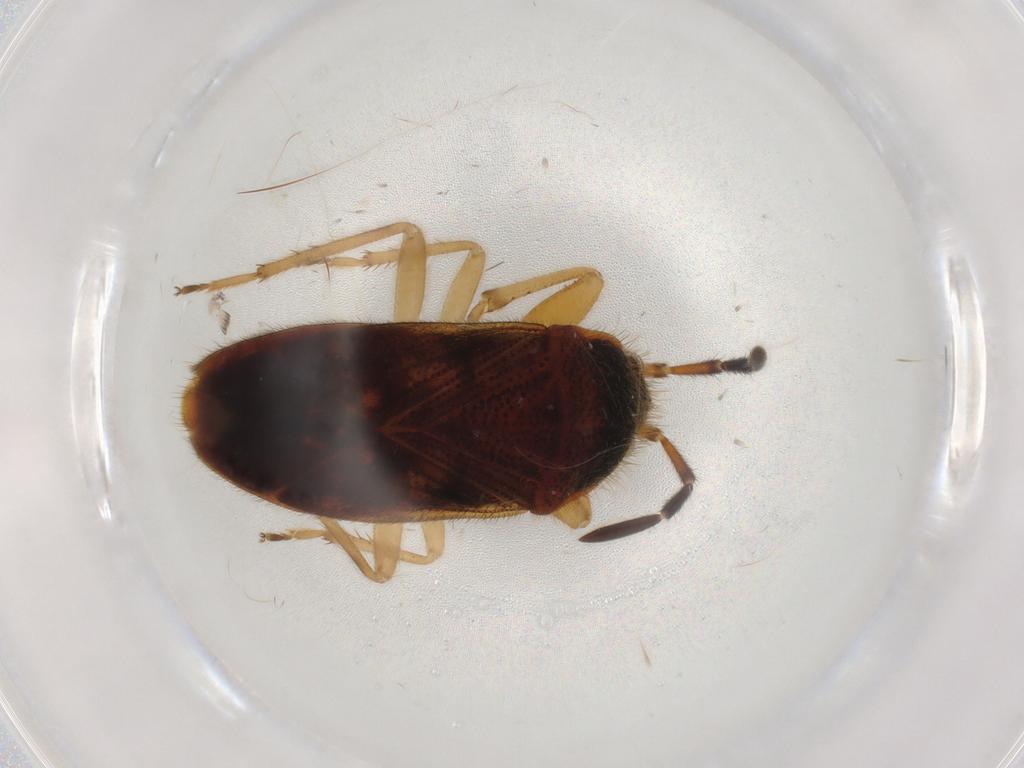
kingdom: Animalia
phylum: Arthropoda
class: Insecta
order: Hemiptera
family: Rhyparochromidae
